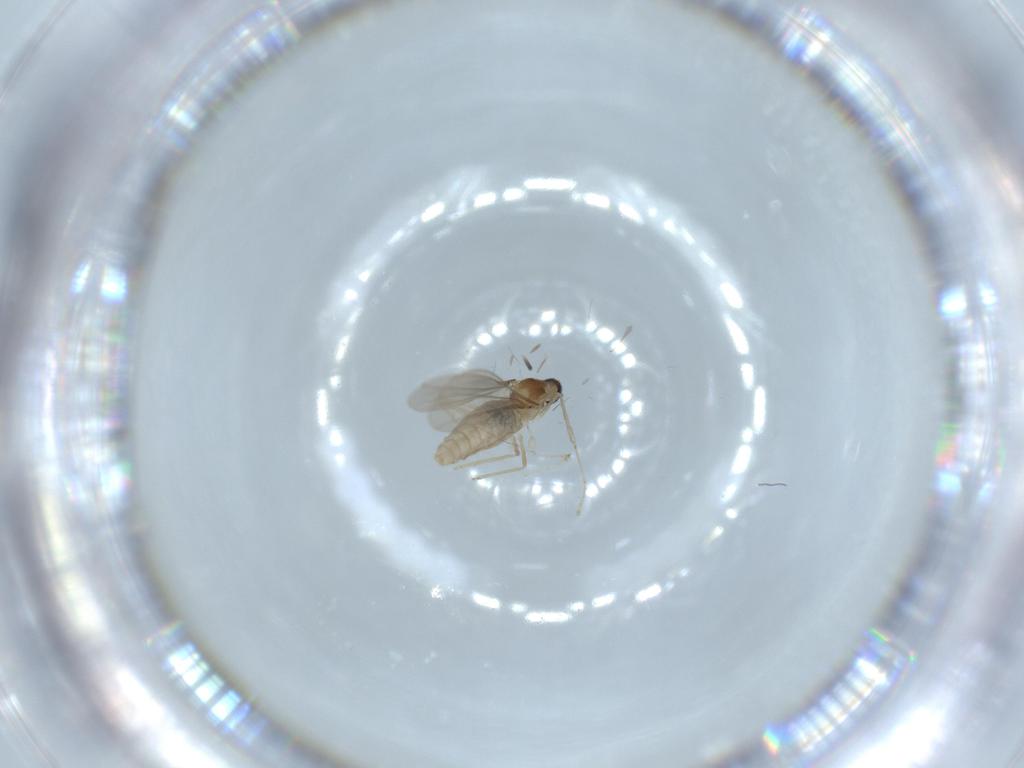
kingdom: Animalia
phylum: Arthropoda
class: Insecta
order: Diptera
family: Cecidomyiidae
